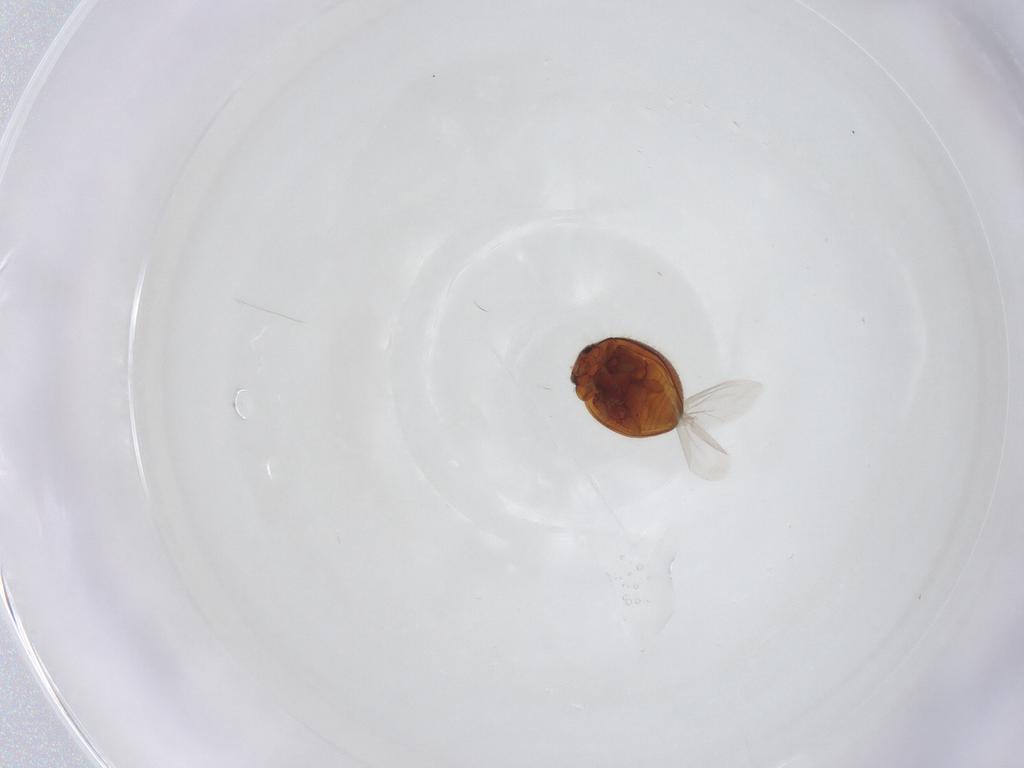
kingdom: Animalia
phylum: Arthropoda
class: Insecta
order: Coleoptera
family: Coccinellidae
